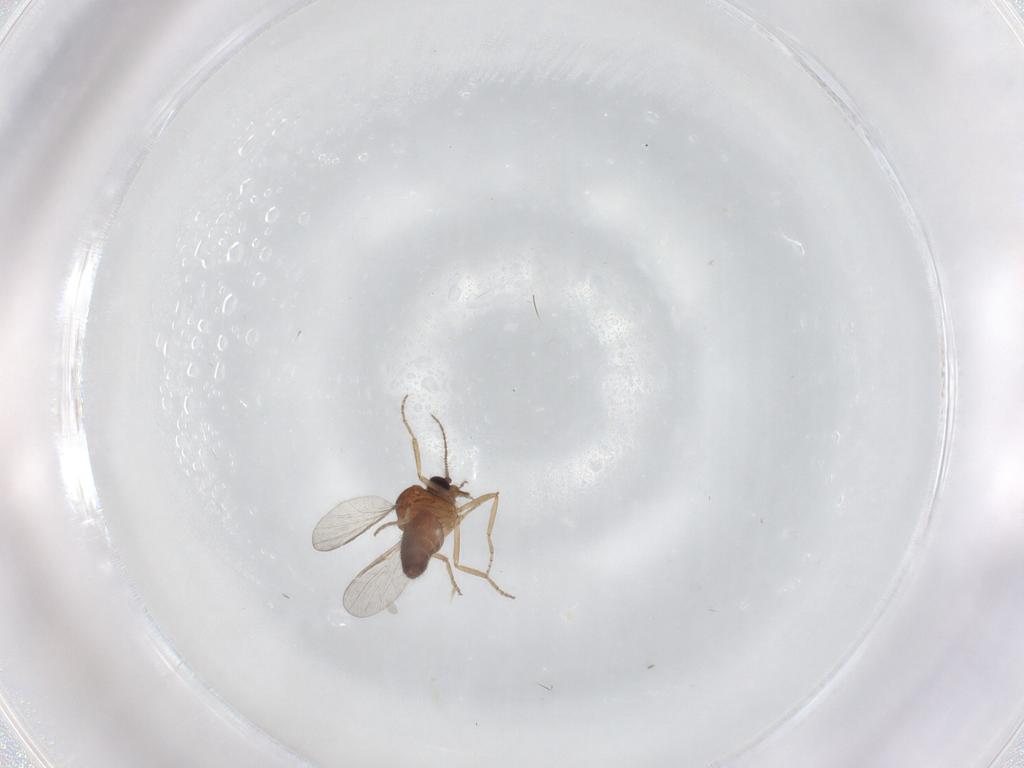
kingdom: Animalia
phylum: Arthropoda
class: Insecta
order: Diptera
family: Ceratopogonidae
